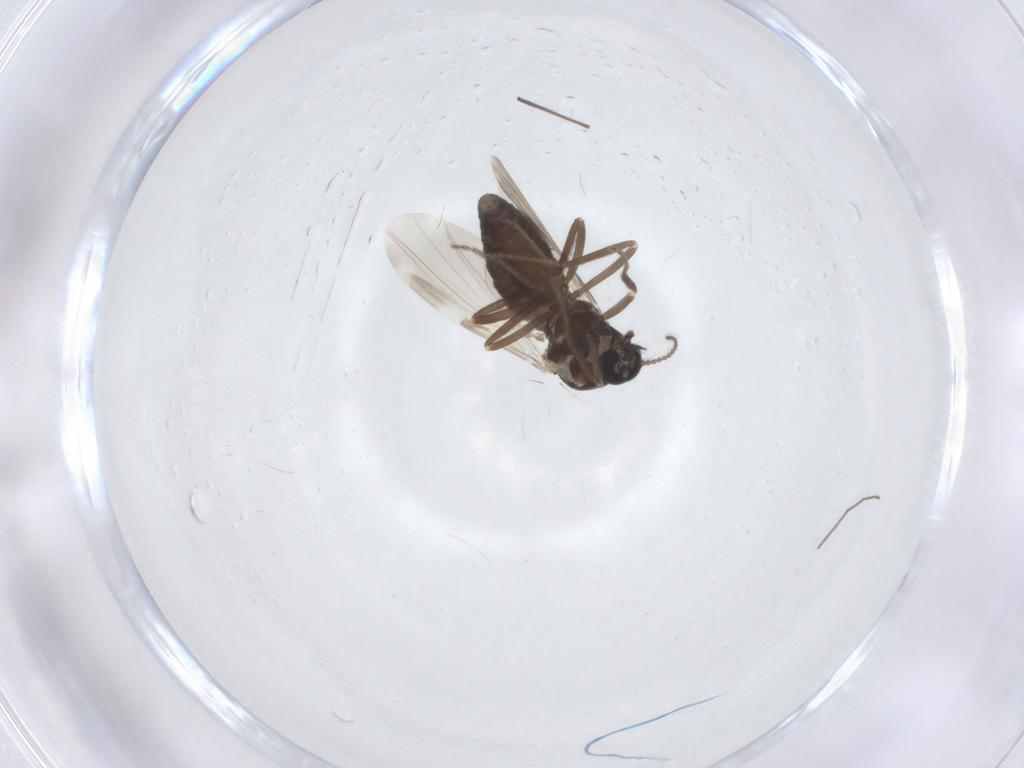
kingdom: Animalia
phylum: Arthropoda
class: Insecta
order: Diptera
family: Ceratopogonidae
